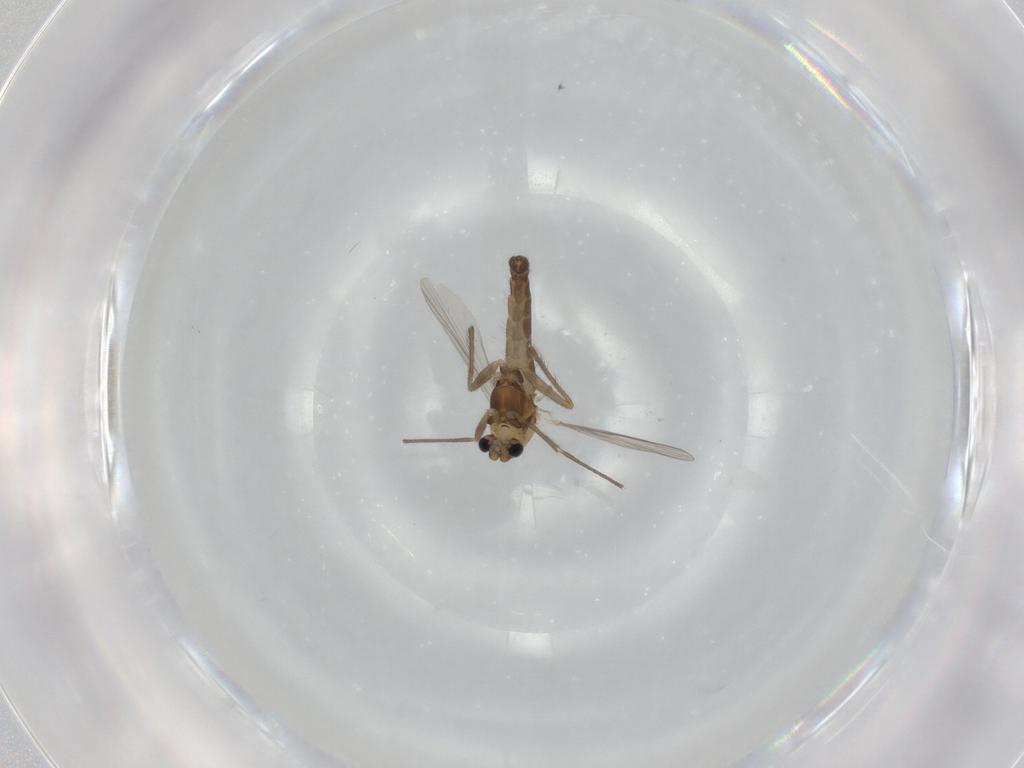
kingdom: Animalia
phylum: Arthropoda
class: Insecta
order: Diptera
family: Chironomidae
